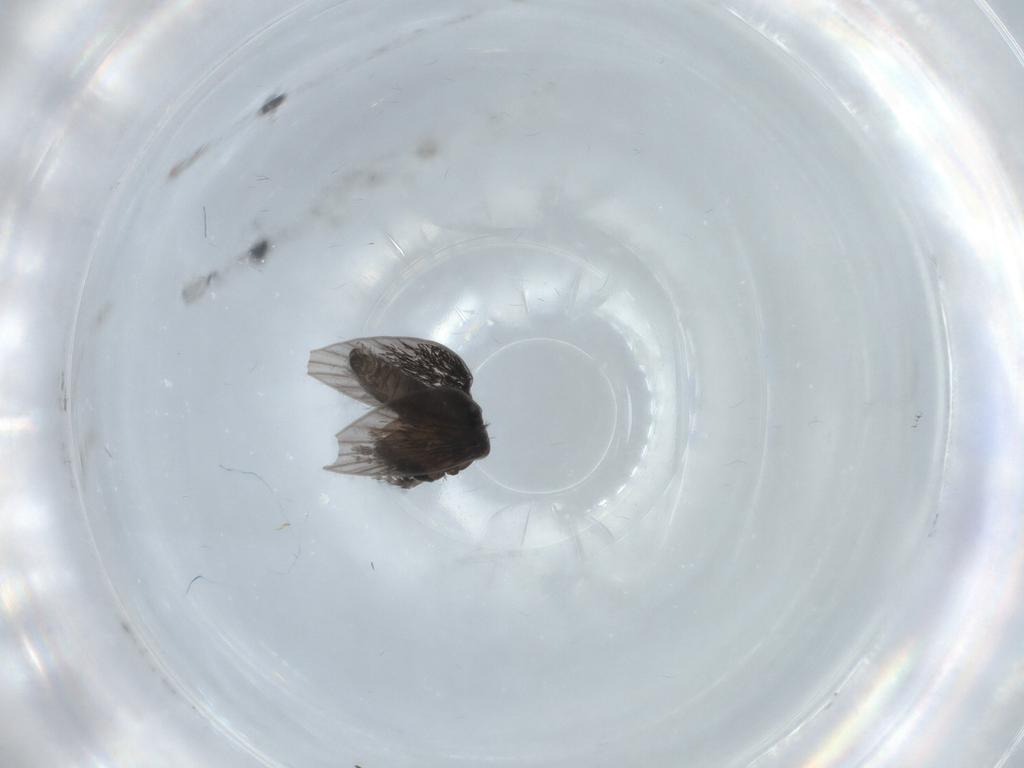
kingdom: Animalia
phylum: Arthropoda
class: Insecta
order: Diptera
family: Psychodidae
